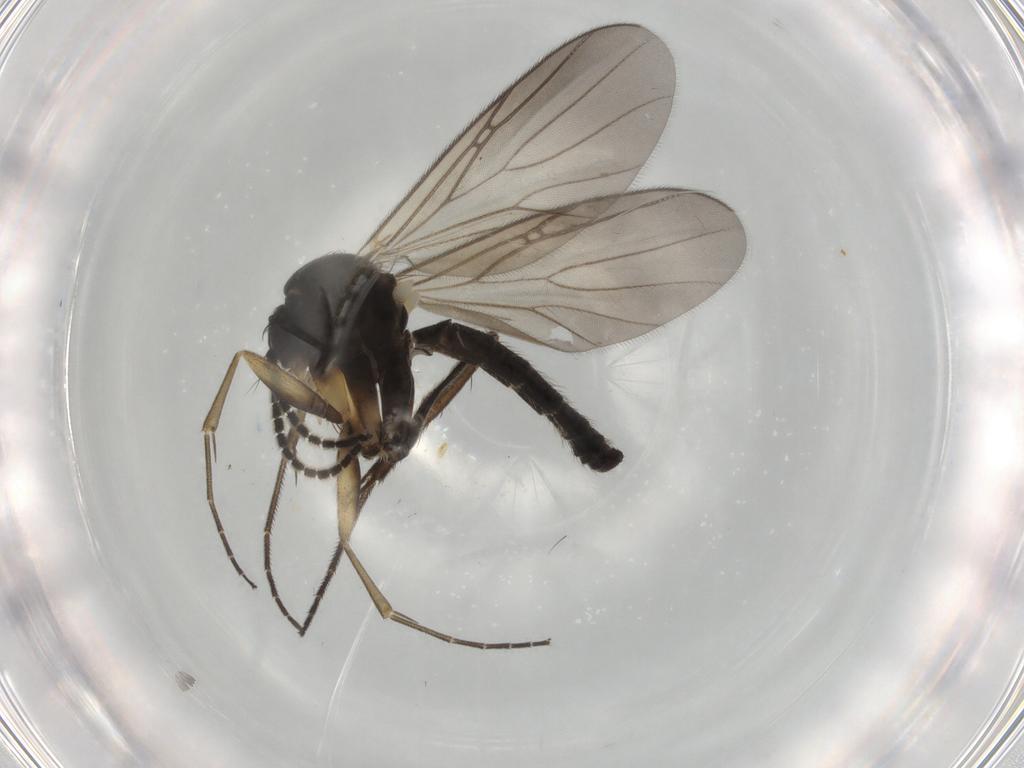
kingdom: Animalia
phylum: Arthropoda
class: Insecta
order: Diptera
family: Mycetophilidae
